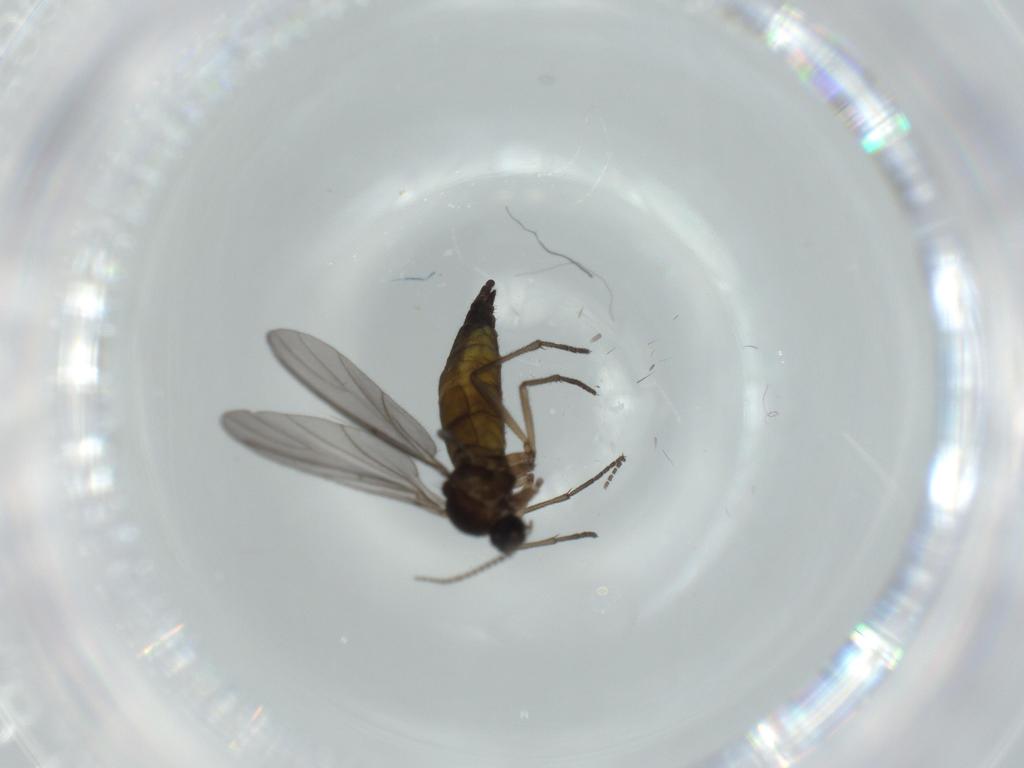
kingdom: Animalia
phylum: Arthropoda
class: Insecta
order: Diptera
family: Sciaridae
